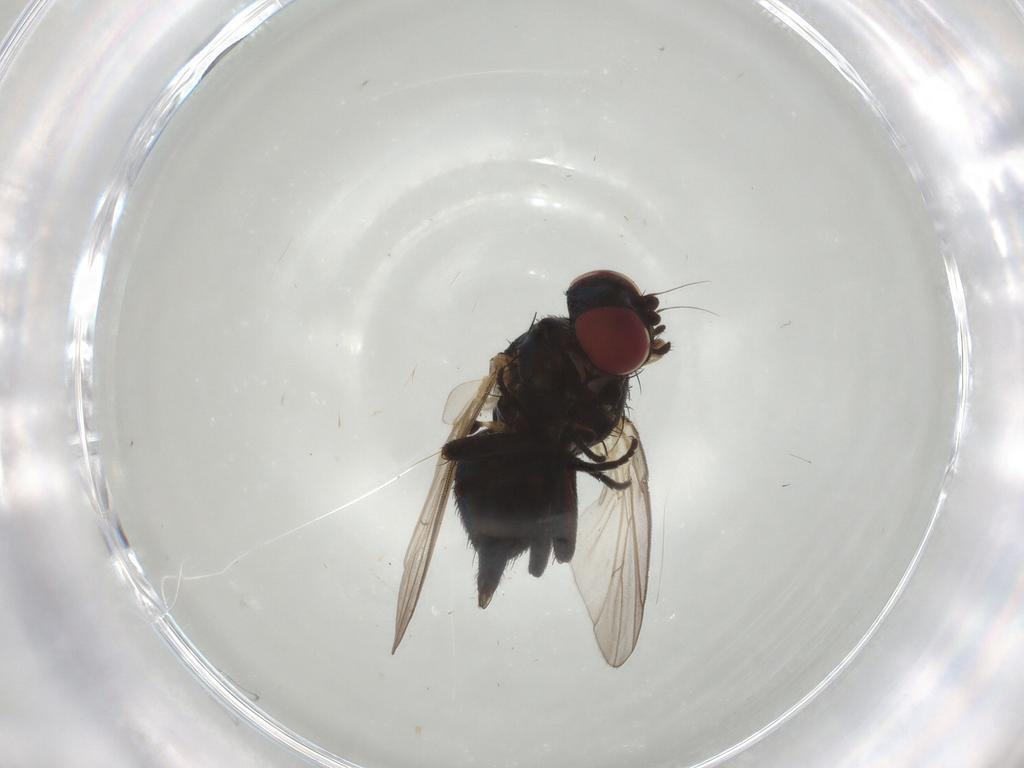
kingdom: Animalia
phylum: Arthropoda
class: Insecta
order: Diptera
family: Agromyzidae
